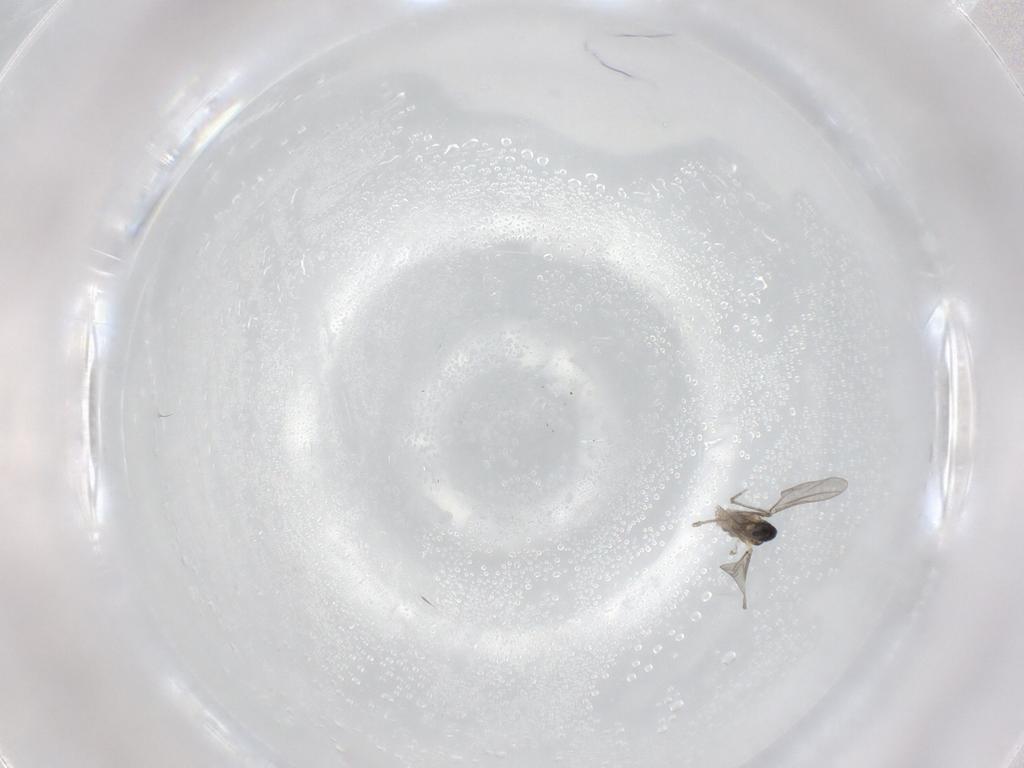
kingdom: Animalia
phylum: Arthropoda
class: Insecta
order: Diptera
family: Cecidomyiidae
